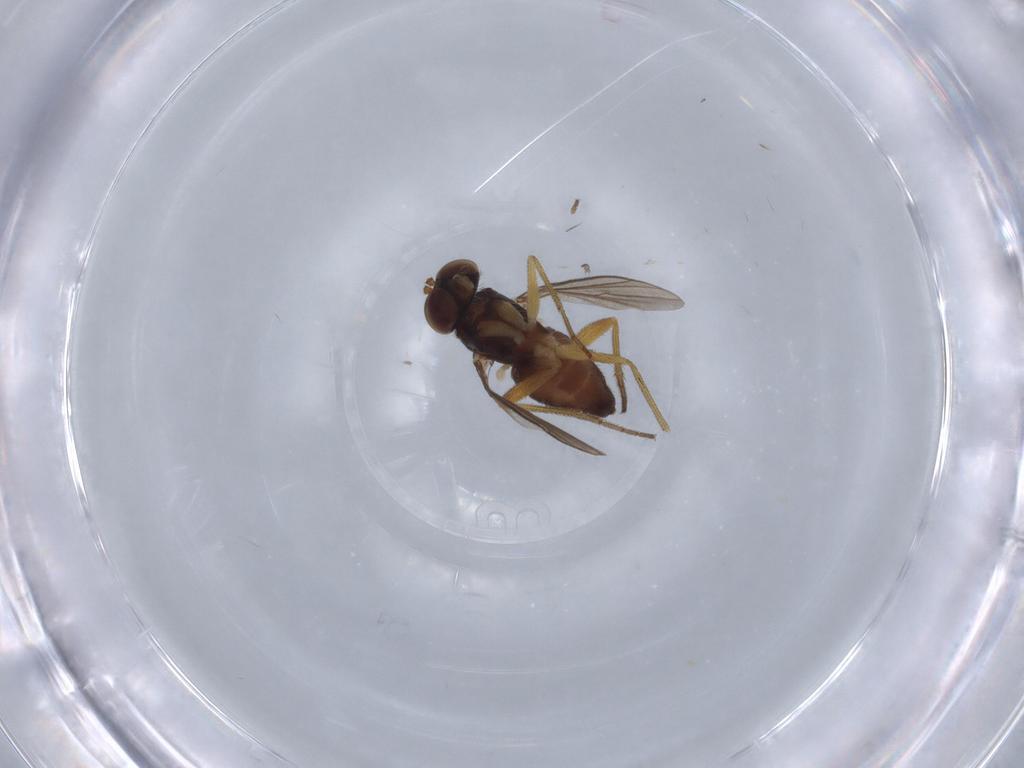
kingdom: Animalia
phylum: Arthropoda
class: Insecta
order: Diptera
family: Dolichopodidae
